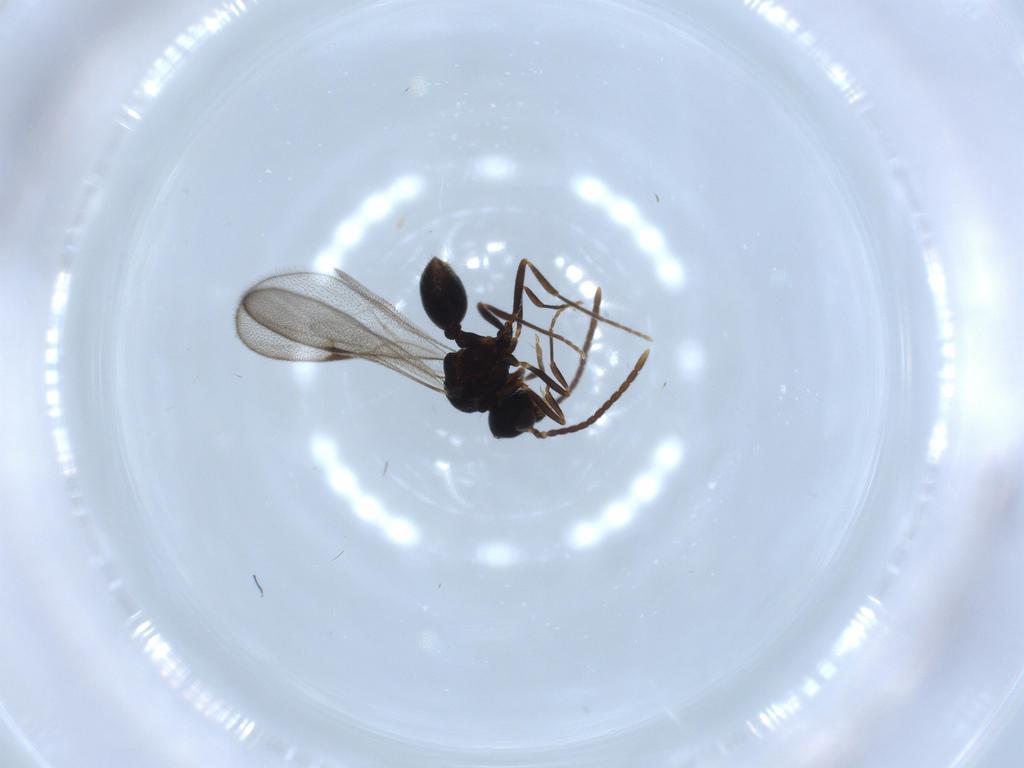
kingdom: Animalia
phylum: Arthropoda
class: Insecta
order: Hymenoptera
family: Formicidae
